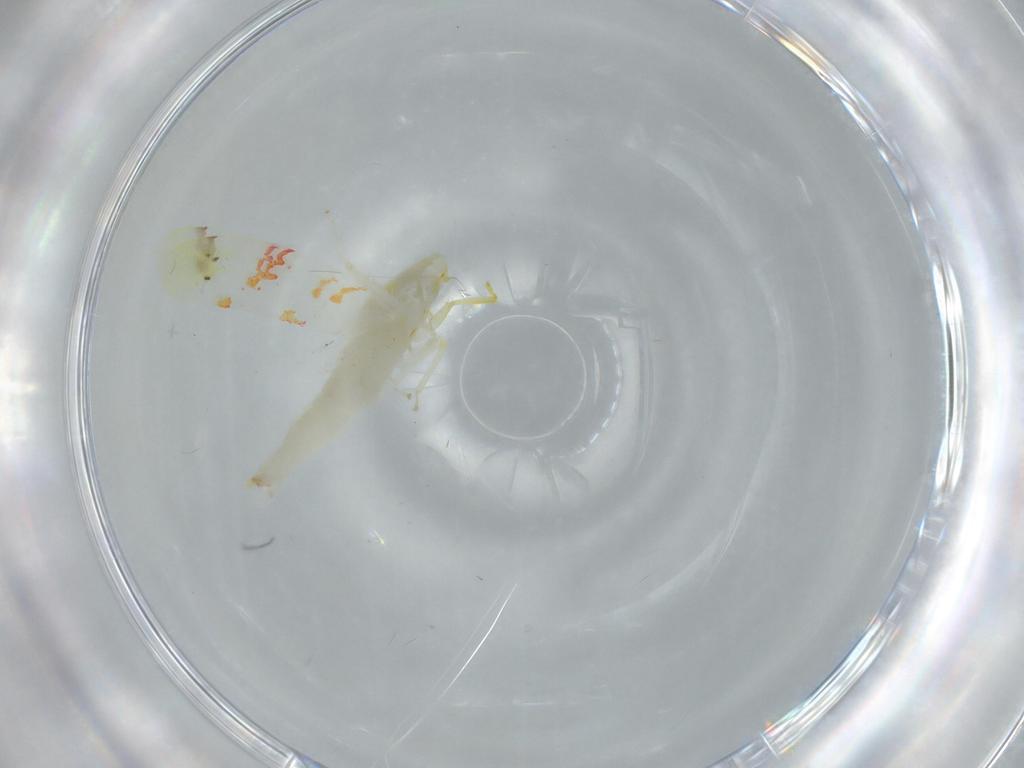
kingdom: Animalia
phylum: Arthropoda
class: Insecta
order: Hemiptera
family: Cicadellidae
